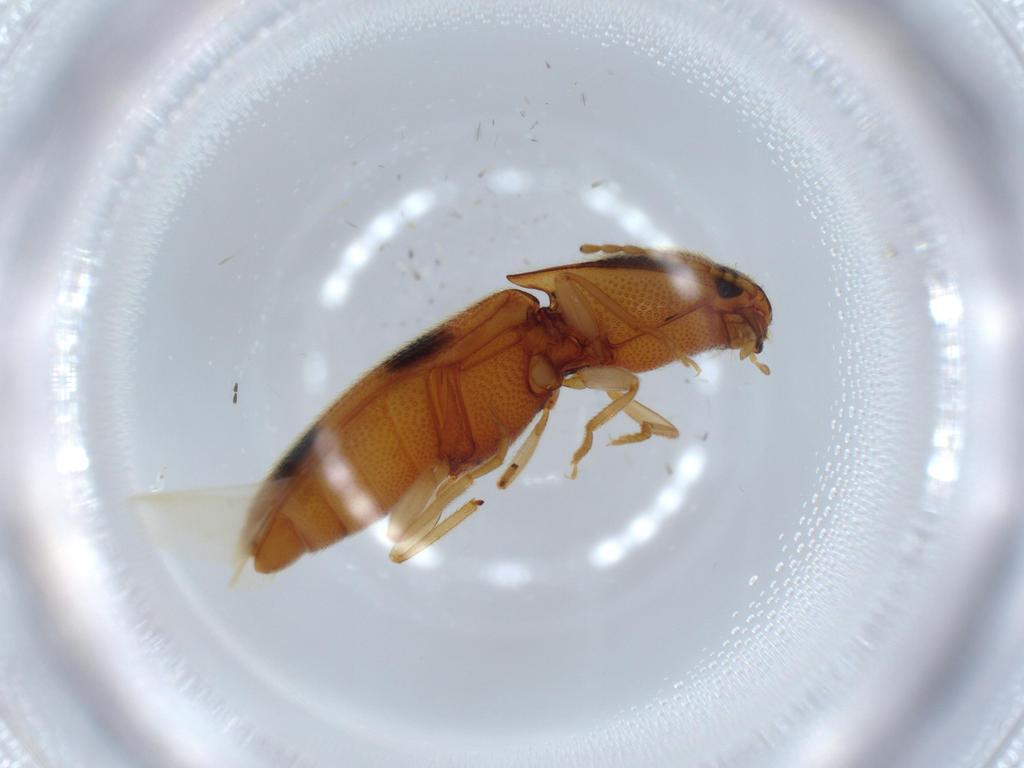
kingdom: Animalia
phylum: Arthropoda
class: Insecta
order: Coleoptera
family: Elateridae
